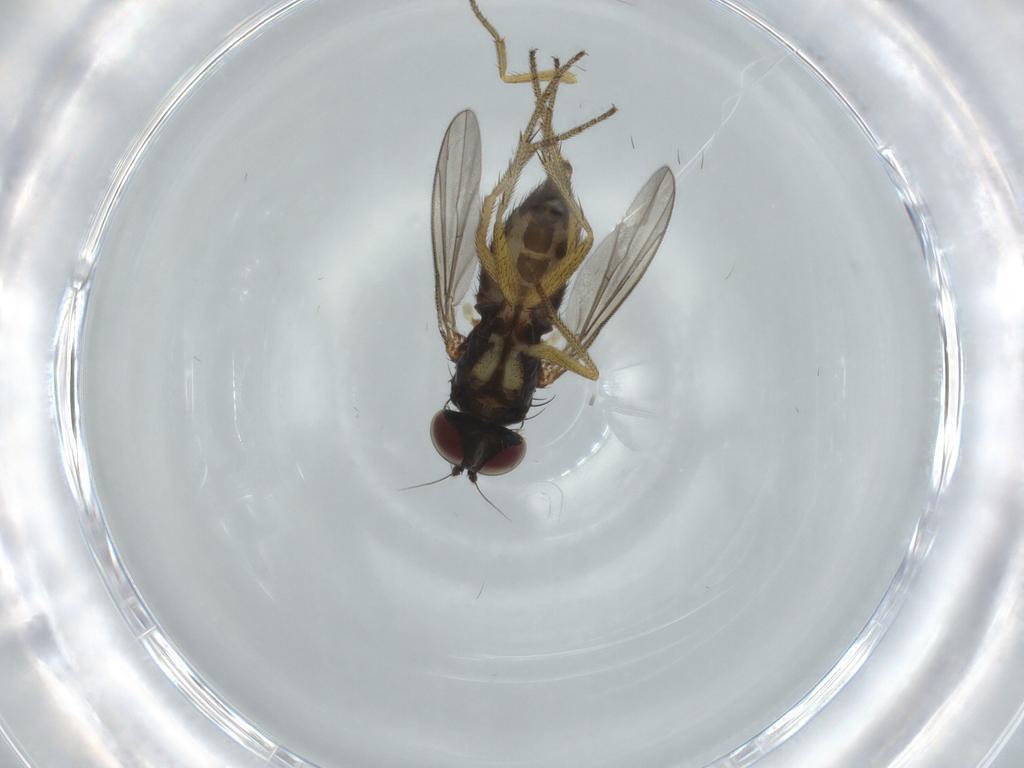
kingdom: Animalia
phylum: Arthropoda
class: Insecta
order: Diptera
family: Dolichopodidae
